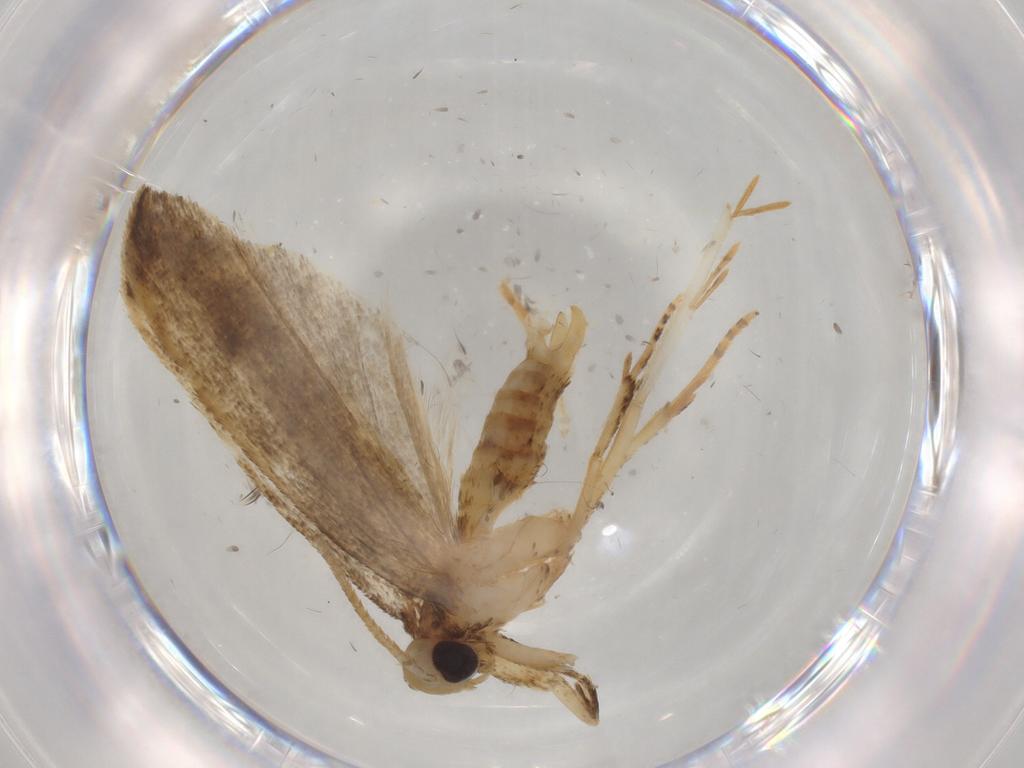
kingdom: Animalia
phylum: Arthropoda
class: Insecta
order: Lepidoptera
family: Autostichidae
